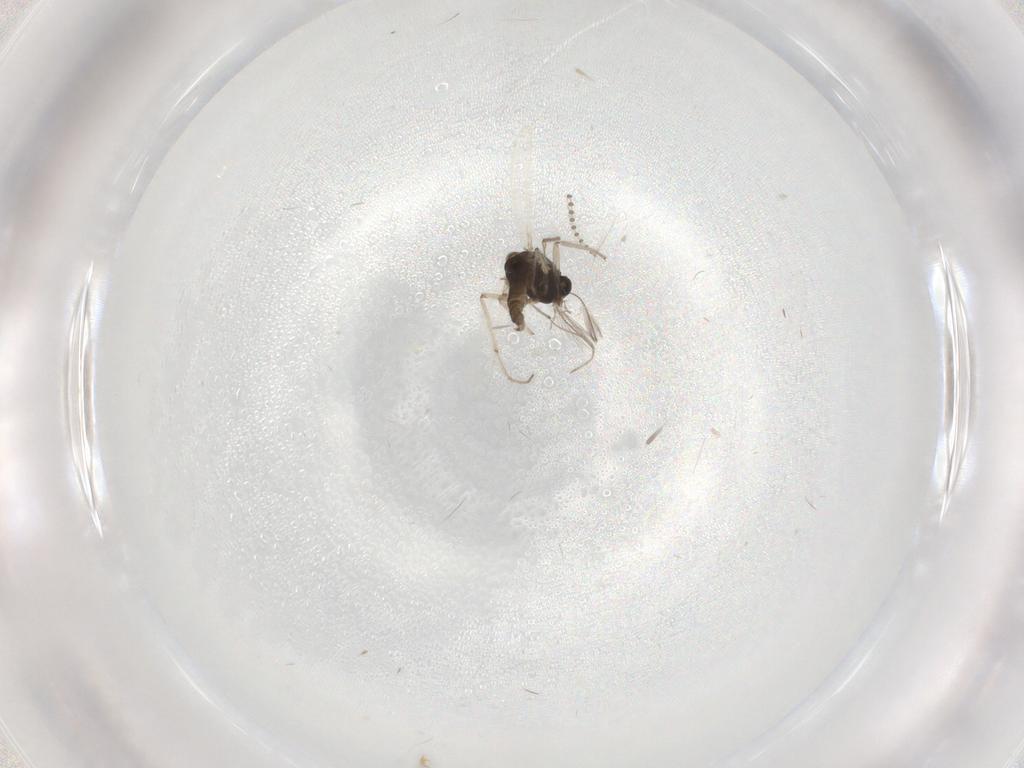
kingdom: Animalia
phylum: Arthropoda
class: Insecta
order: Diptera
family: Chironomidae
